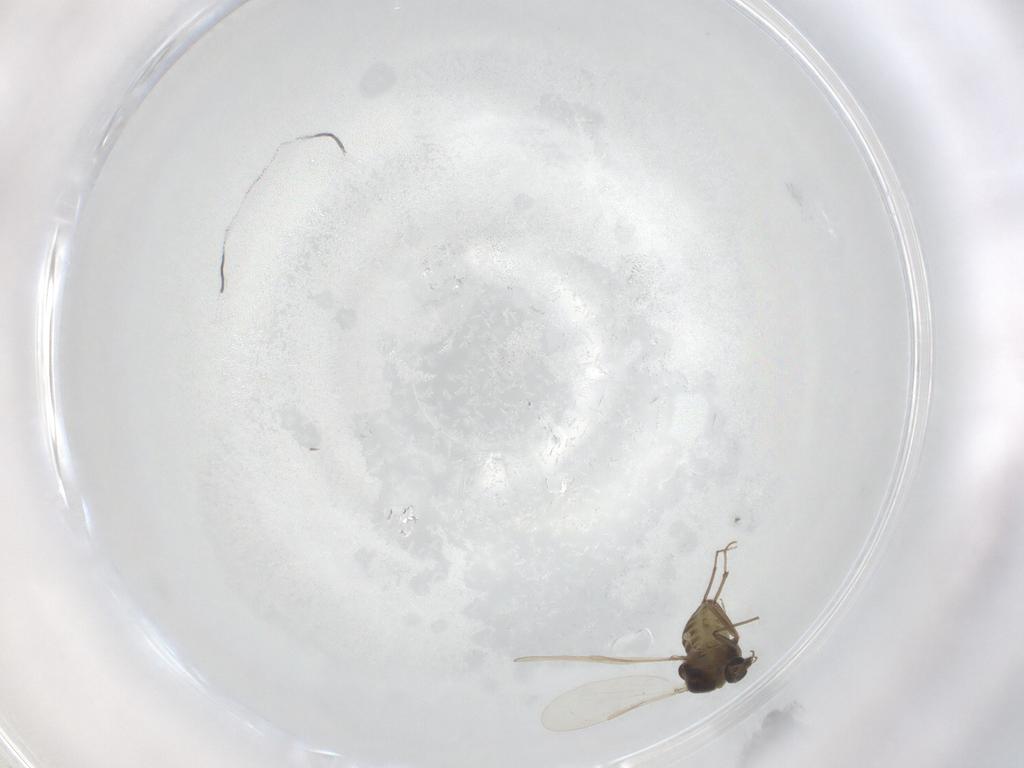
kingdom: Animalia
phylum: Arthropoda
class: Insecta
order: Diptera
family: Chironomidae
